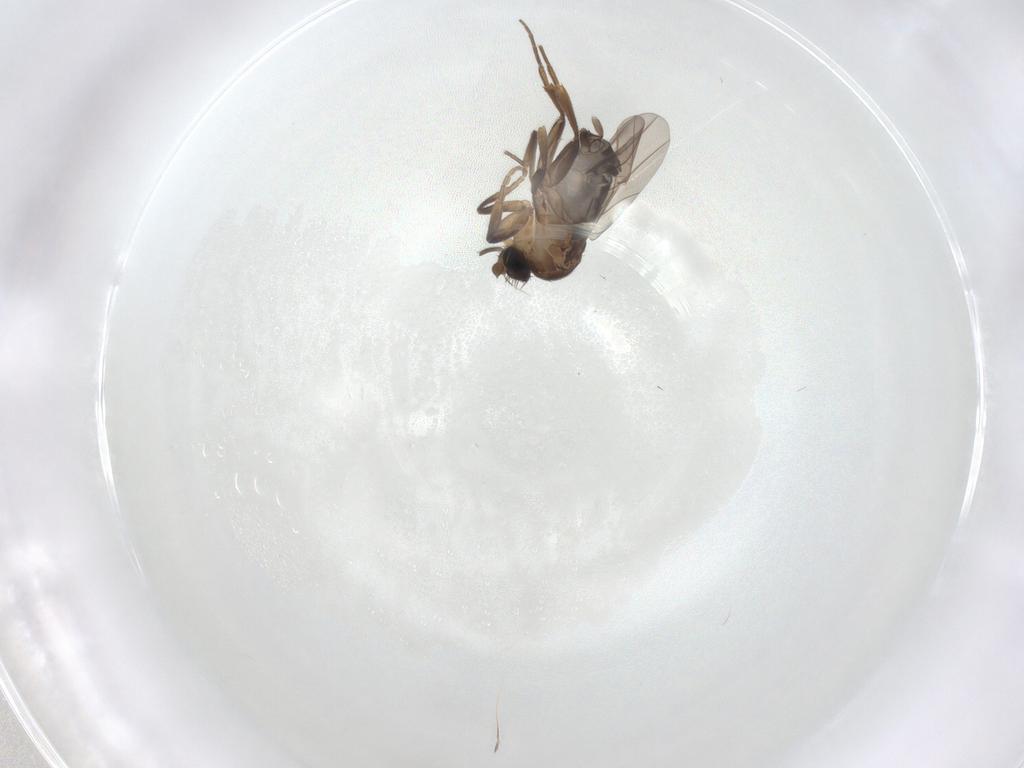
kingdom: Animalia
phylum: Arthropoda
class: Insecta
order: Diptera
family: Phoridae
